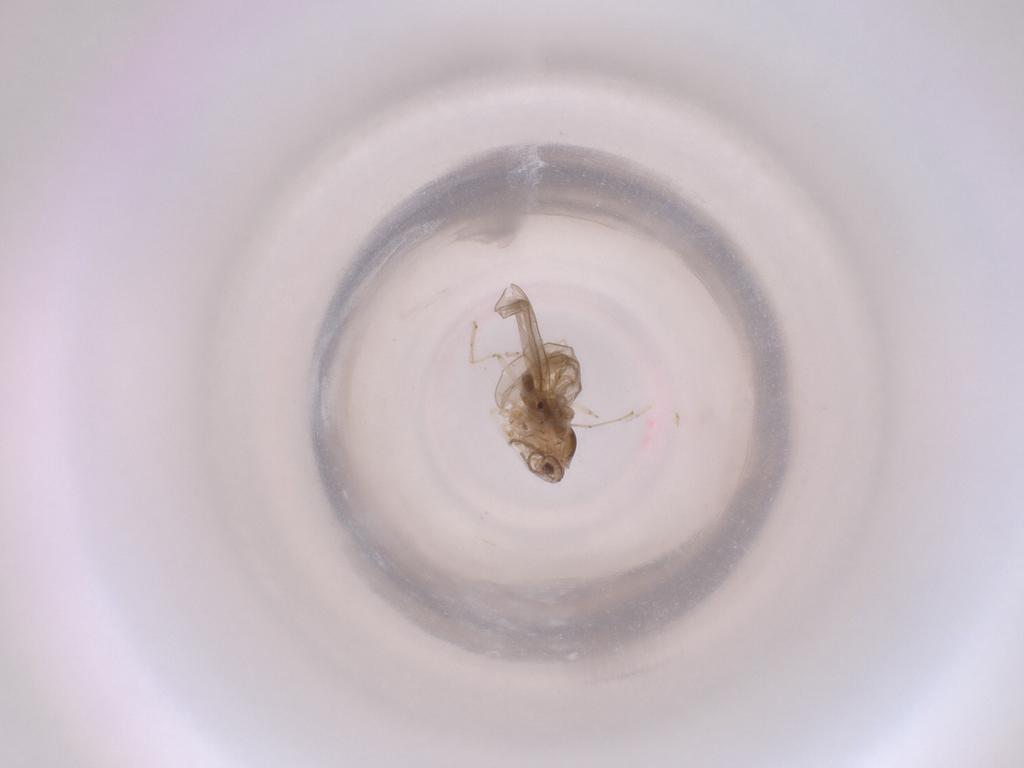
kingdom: Animalia
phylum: Arthropoda
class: Insecta
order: Diptera
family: Cecidomyiidae
